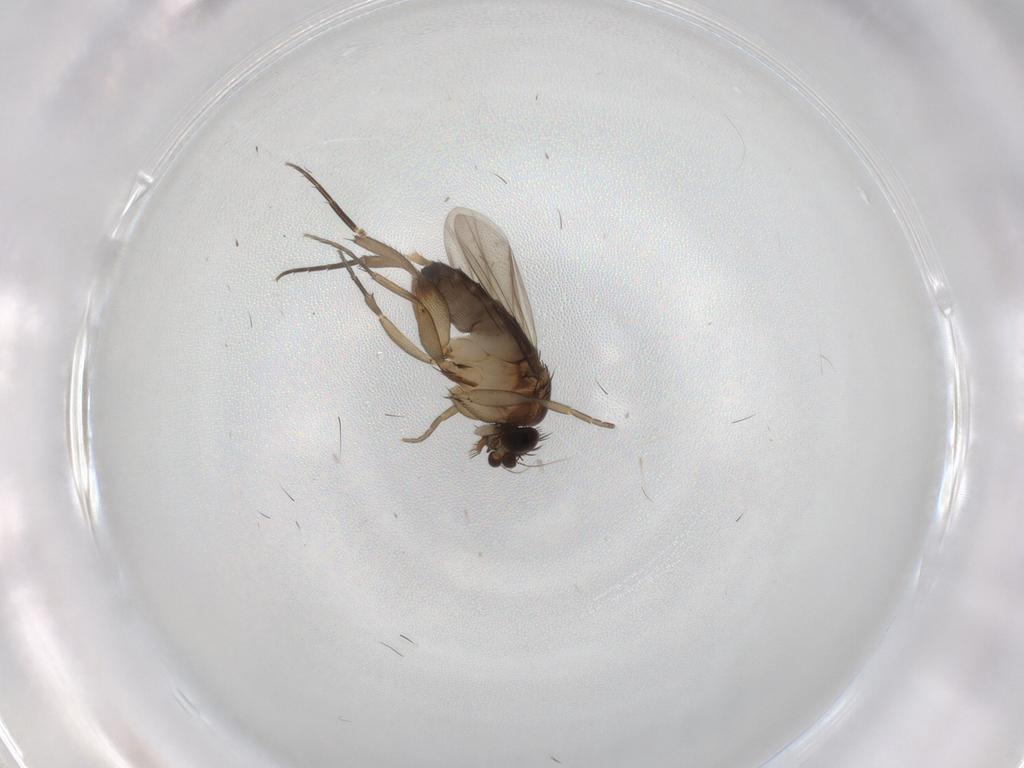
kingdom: Animalia
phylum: Arthropoda
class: Insecta
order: Diptera
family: Phoridae
